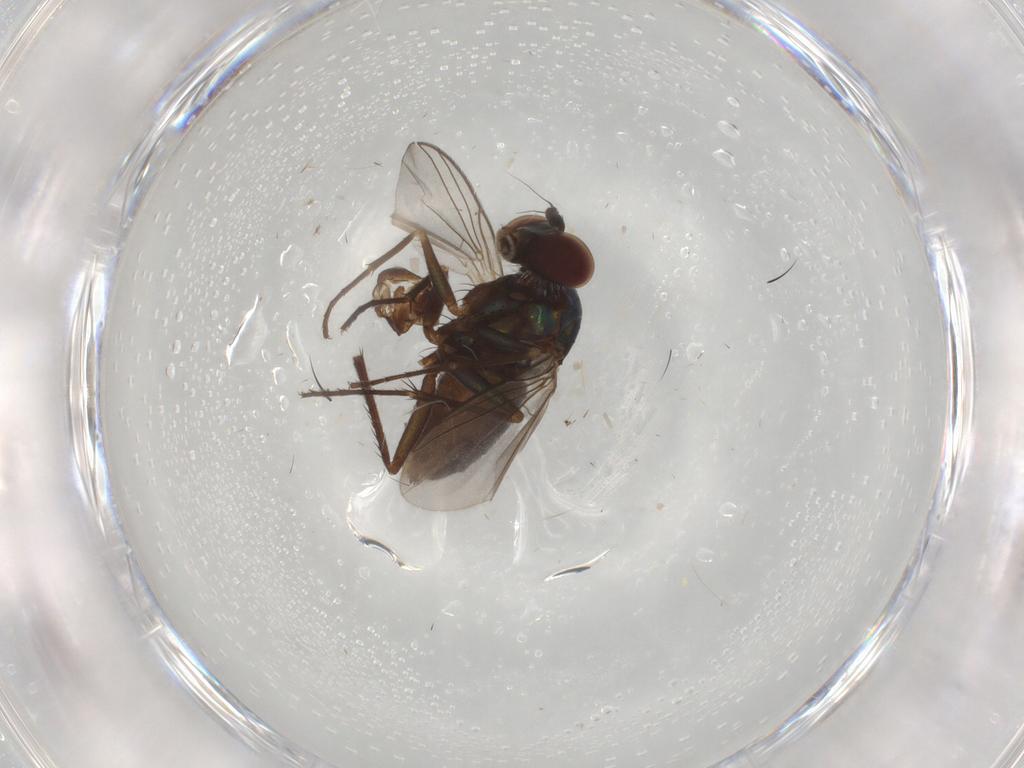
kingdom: Animalia
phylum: Arthropoda
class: Insecta
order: Diptera
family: Dolichopodidae
